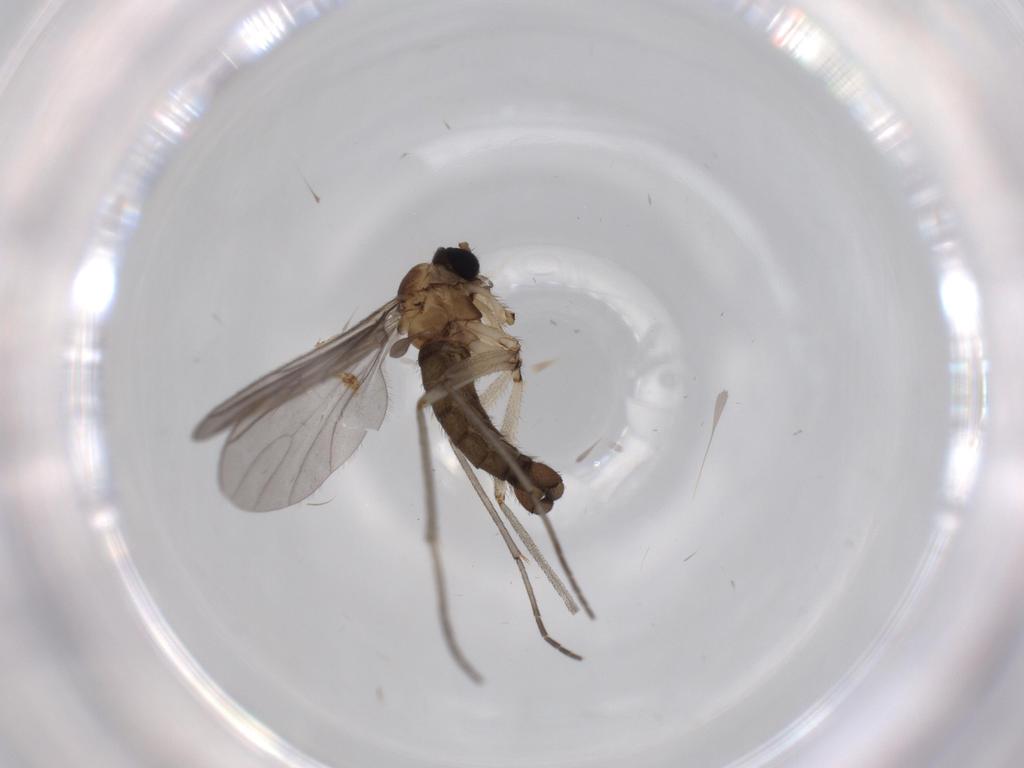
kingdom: Animalia
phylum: Arthropoda
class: Insecta
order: Diptera
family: Sciaridae
